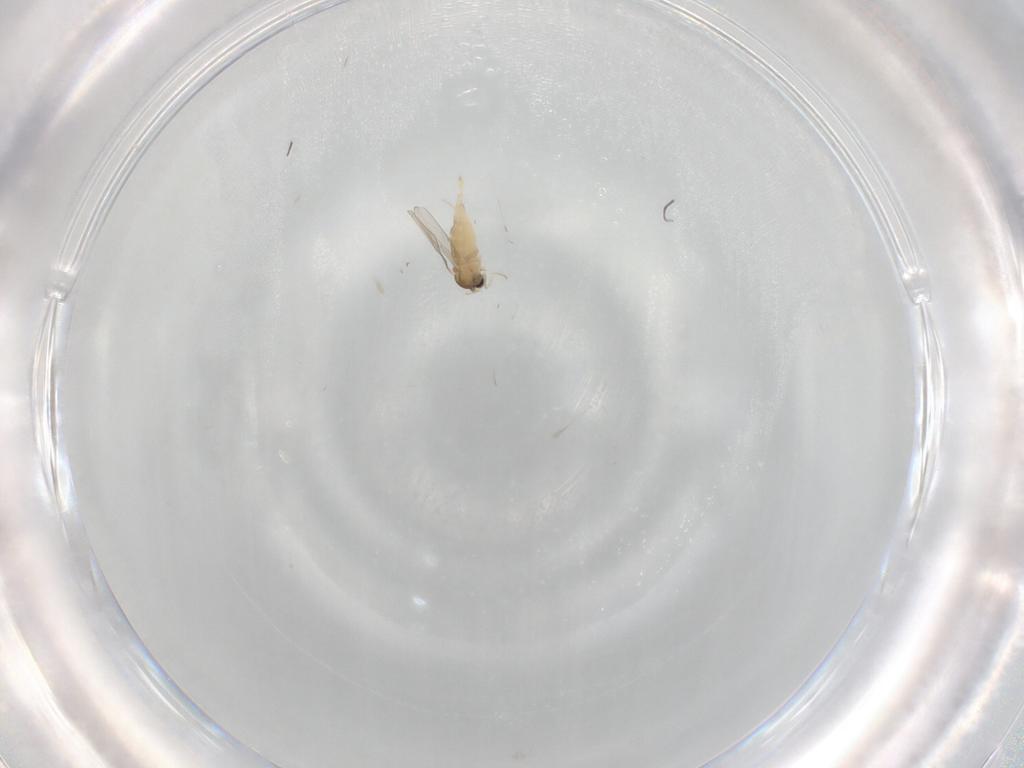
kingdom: Animalia
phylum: Arthropoda
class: Insecta
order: Diptera
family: Cecidomyiidae
